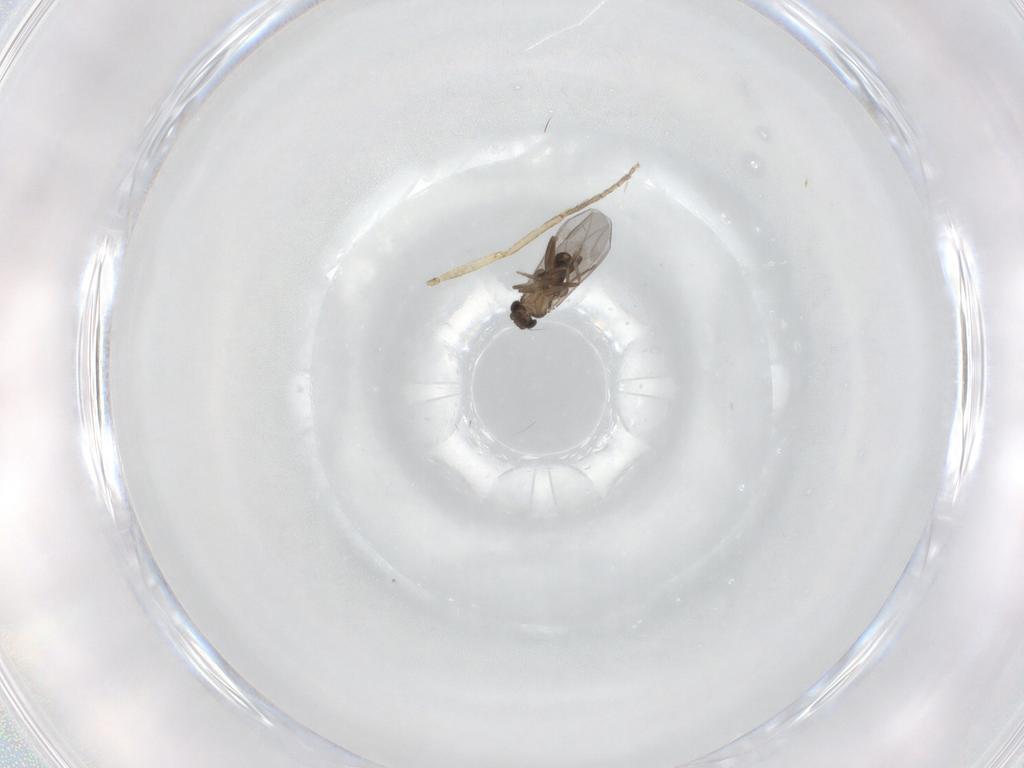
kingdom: Animalia
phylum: Arthropoda
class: Insecta
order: Diptera
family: Ceratopogonidae
